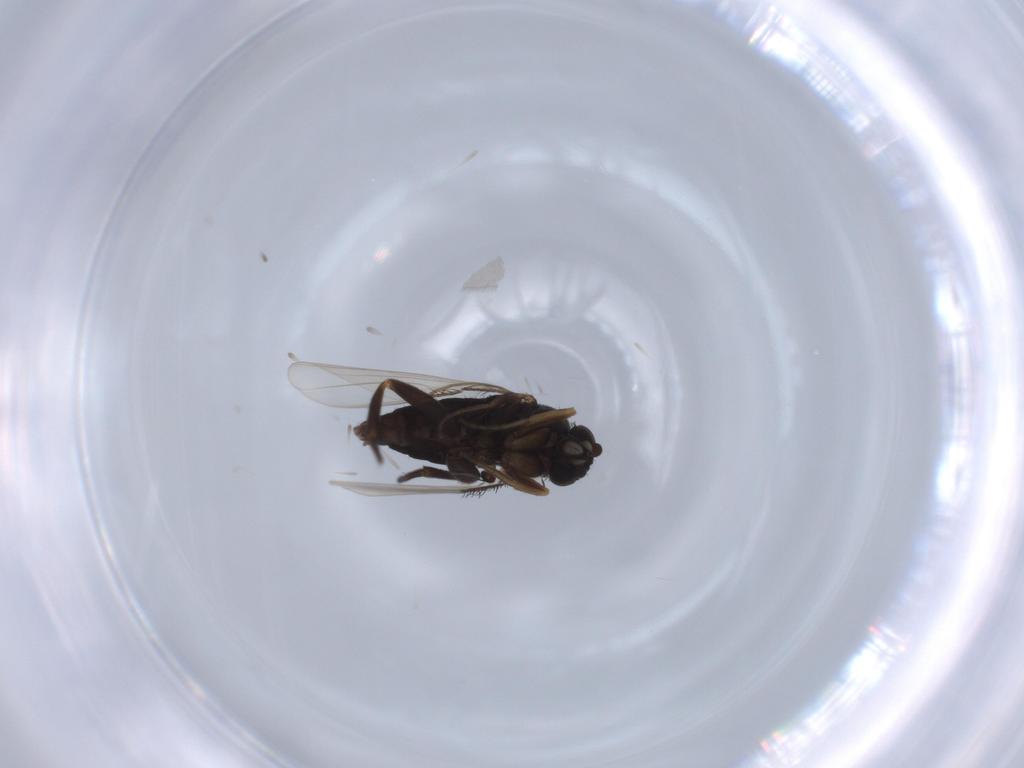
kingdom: Animalia
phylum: Arthropoda
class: Insecta
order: Diptera
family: Phoridae
